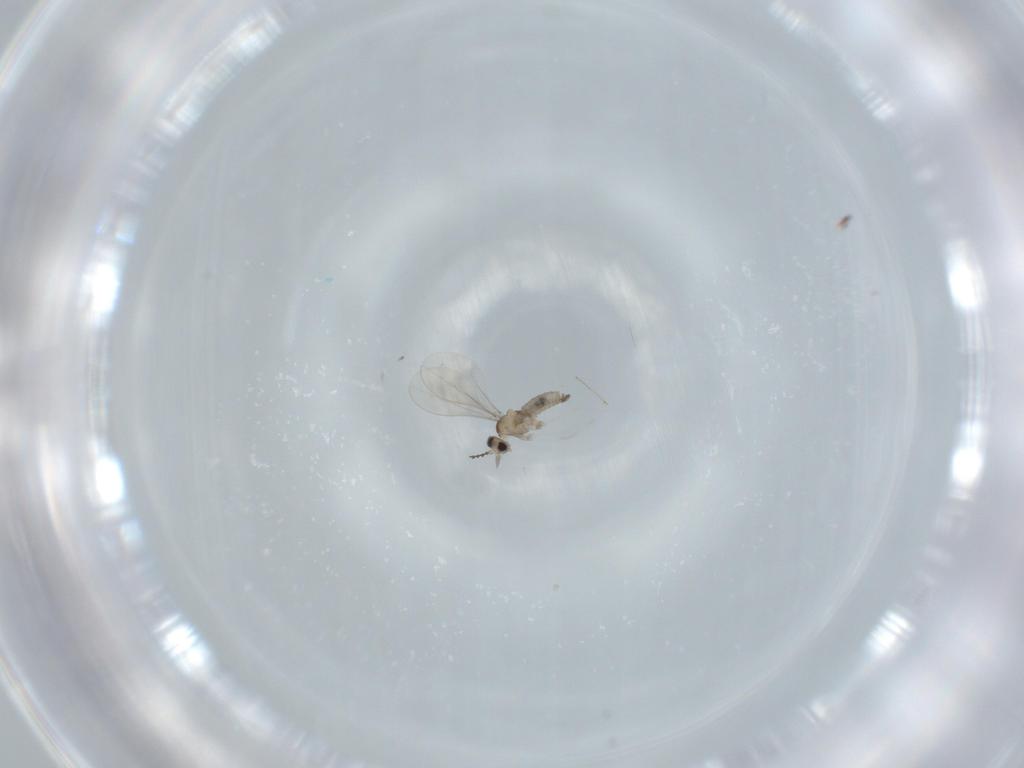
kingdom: Animalia
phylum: Arthropoda
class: Insecta
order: Diptera
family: Cecidomyiidae
